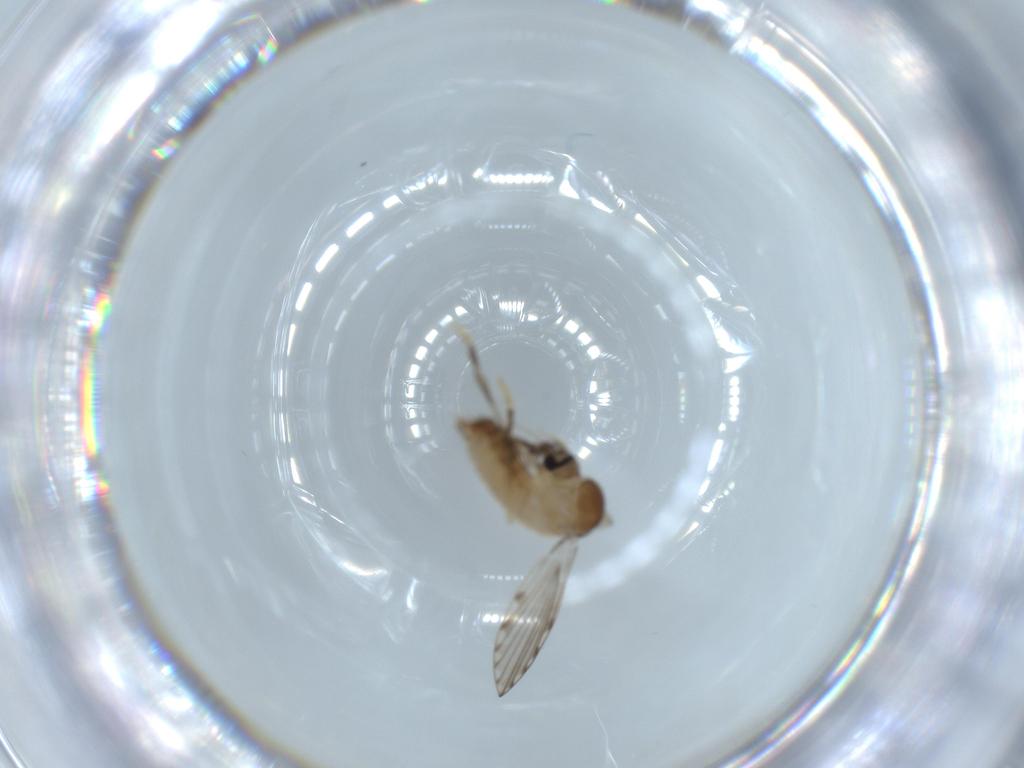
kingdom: Animalia
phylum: Arthropoda
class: Insecta
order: Diptera
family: Psychodidae
